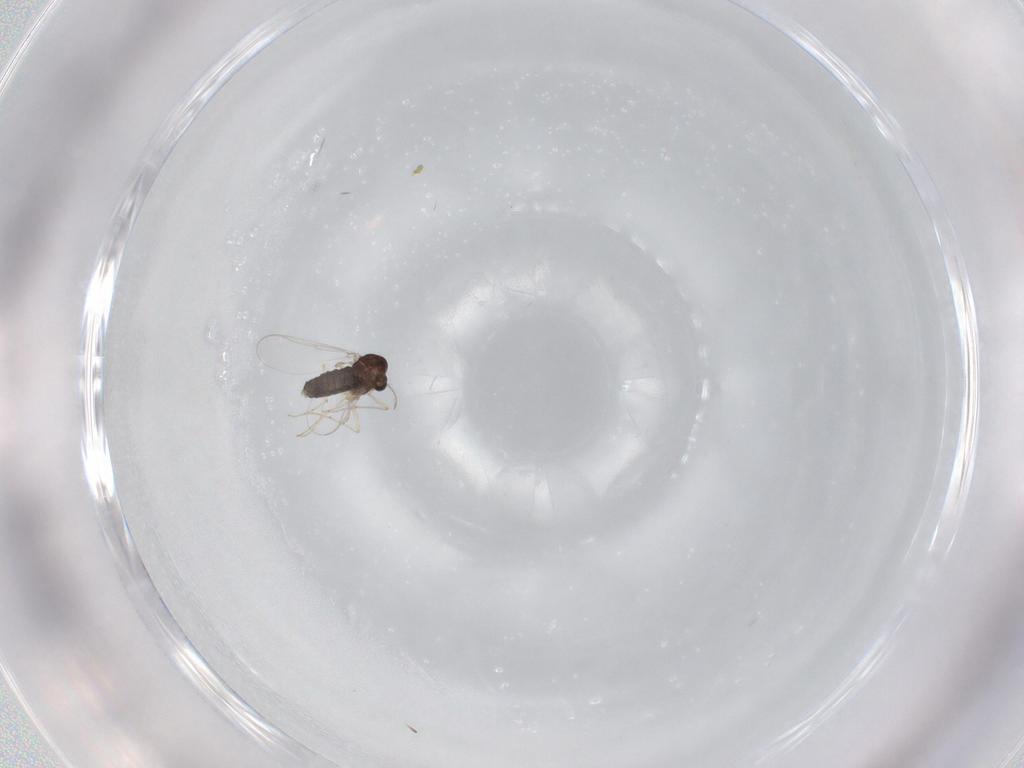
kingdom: Animalia
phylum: Arthropoda
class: Insecta
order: Diptera
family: Chironomidae
